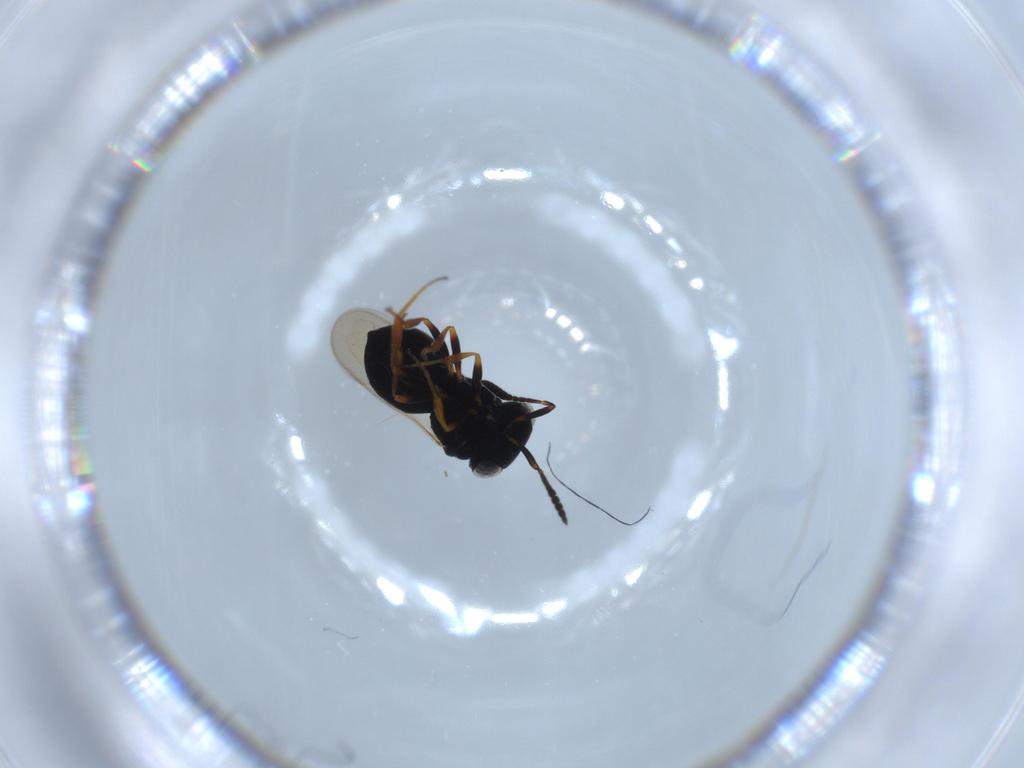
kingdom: Animalia
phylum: Arthropoda
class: Insecta
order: Hymenoptera
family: Scelionidae
